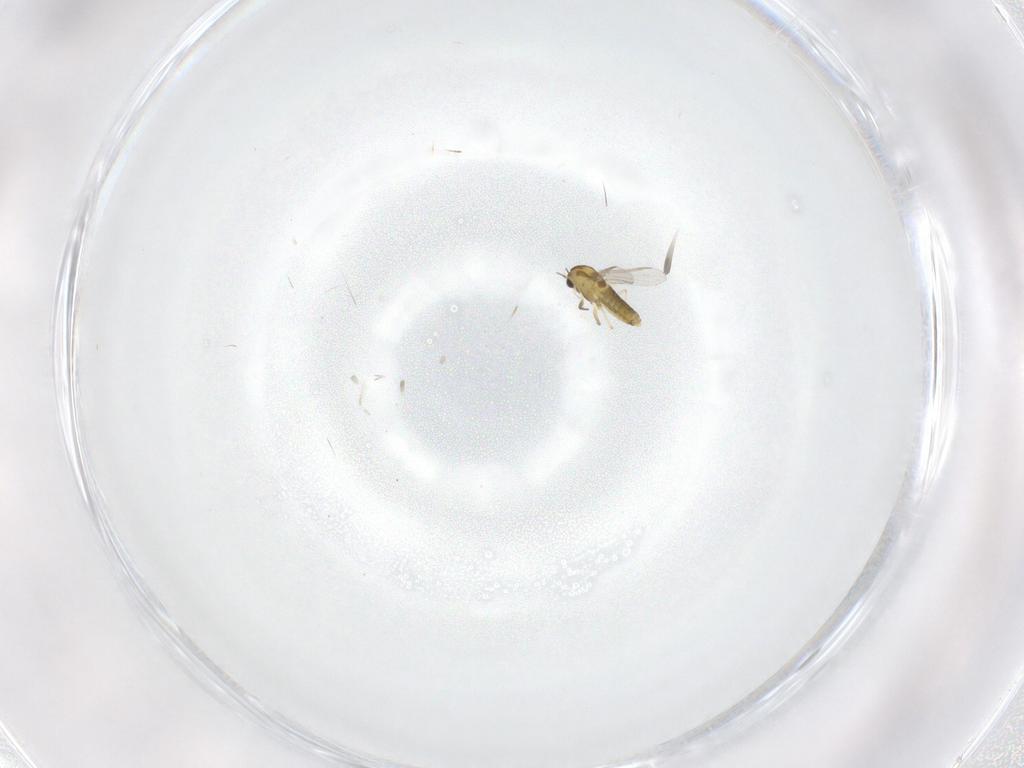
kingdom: Animalia
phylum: Arthropoda
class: Insecta
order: Diptera
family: Chironomidae
